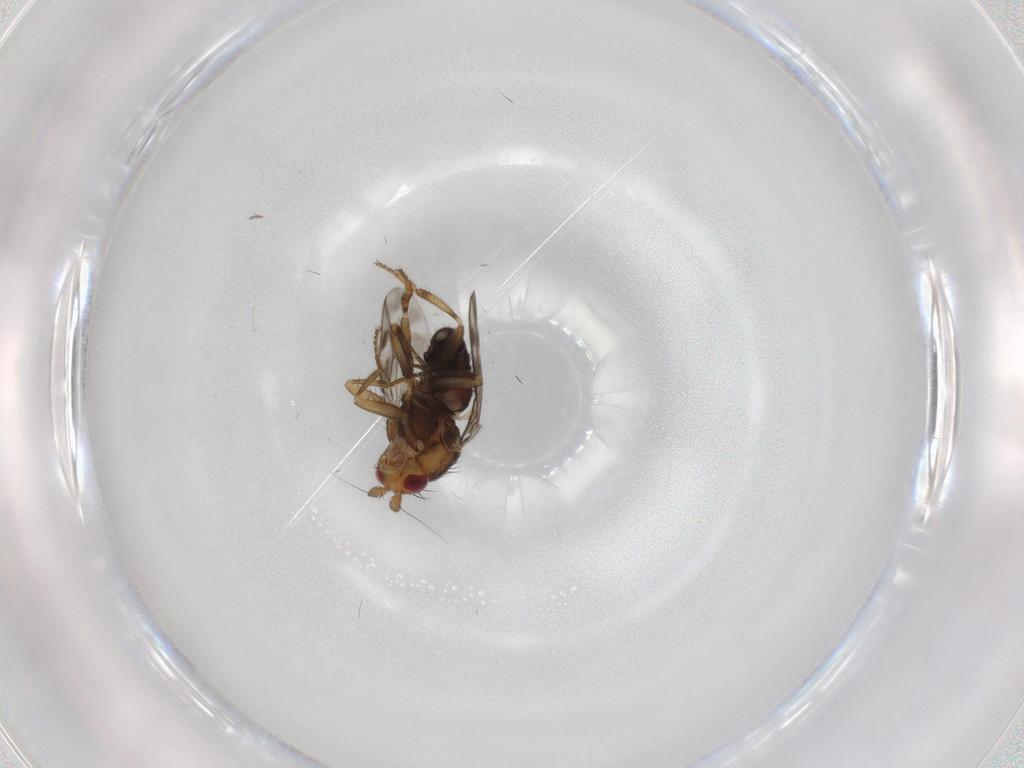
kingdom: Animalia
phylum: Arthropoda
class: Insecta
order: Diptera
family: Sphaeroceridae
